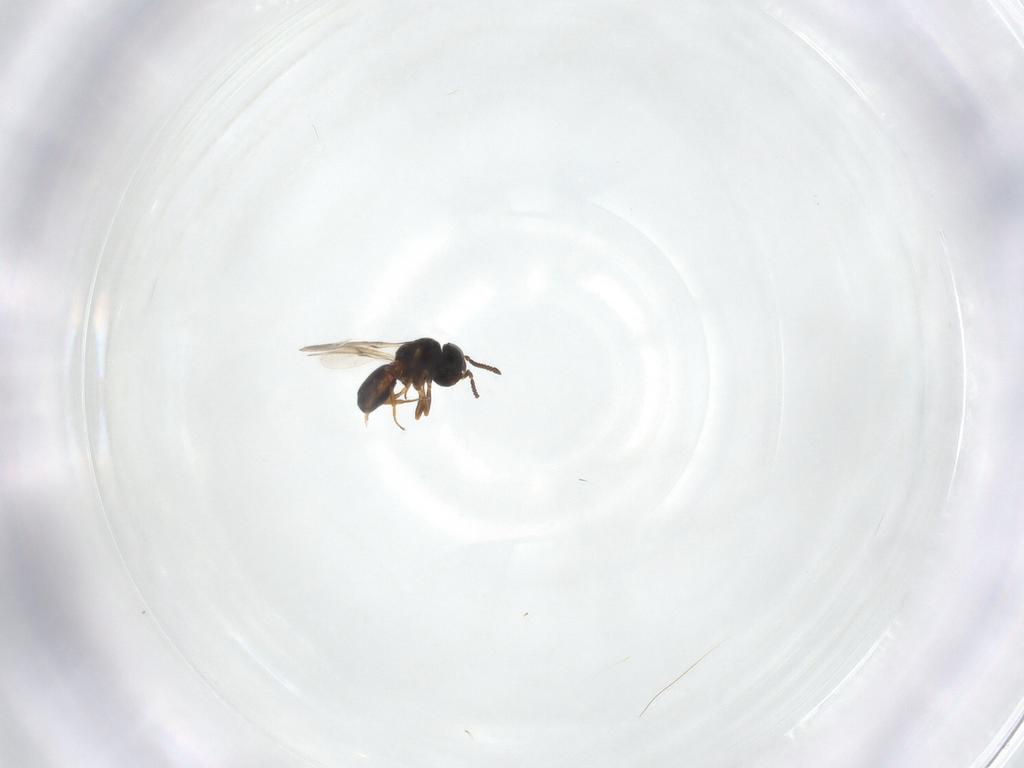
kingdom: Animalia
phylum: Arthropoda
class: Insecta
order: Hymenoptera
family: Scelionidae
